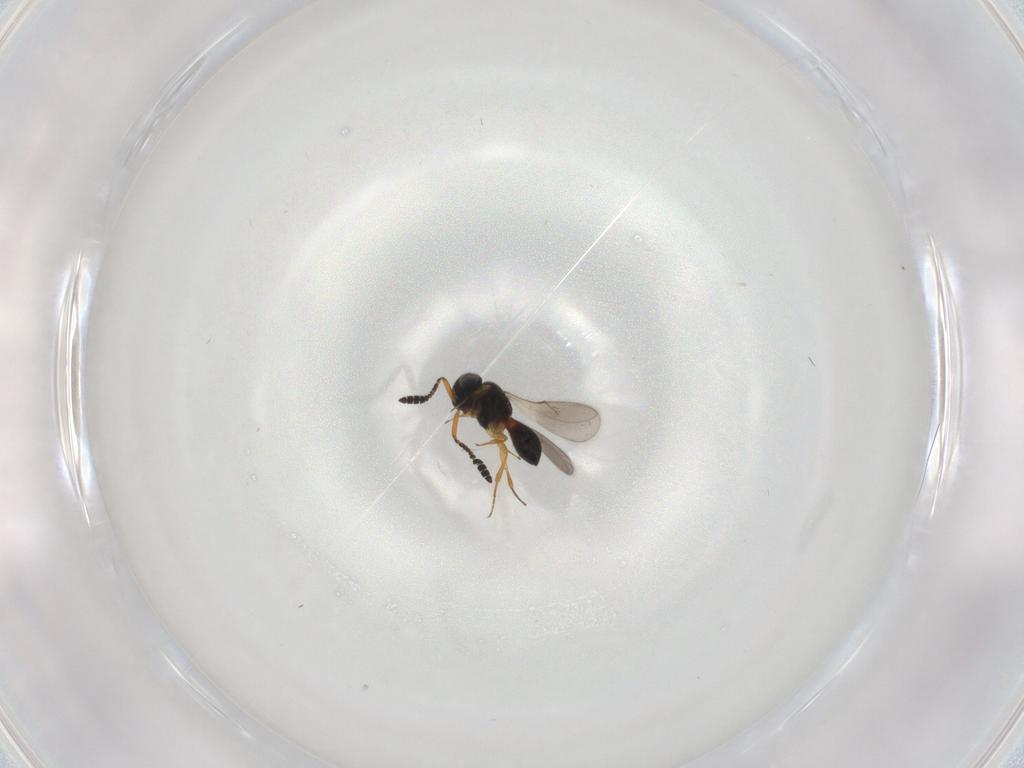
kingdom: Animalia
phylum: Arthropoda
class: Insecta
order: Hymenoptera
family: Scelionidae
